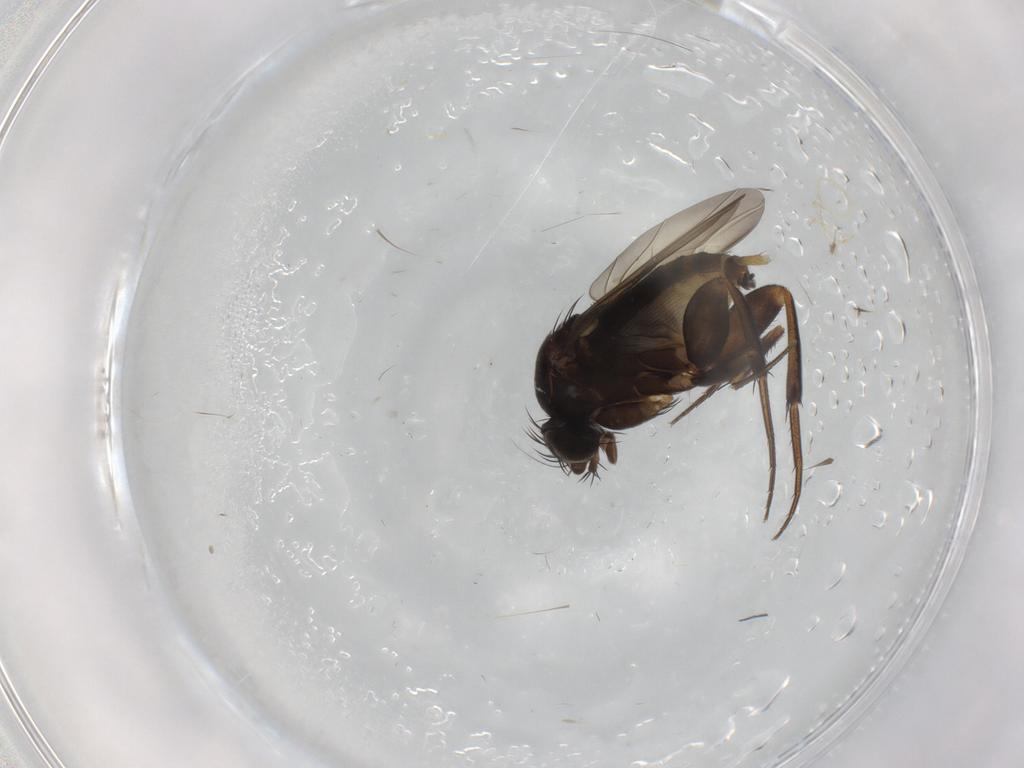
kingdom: Animalia
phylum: Arthropoda
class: Insecta
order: Diptera
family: Phoridae
